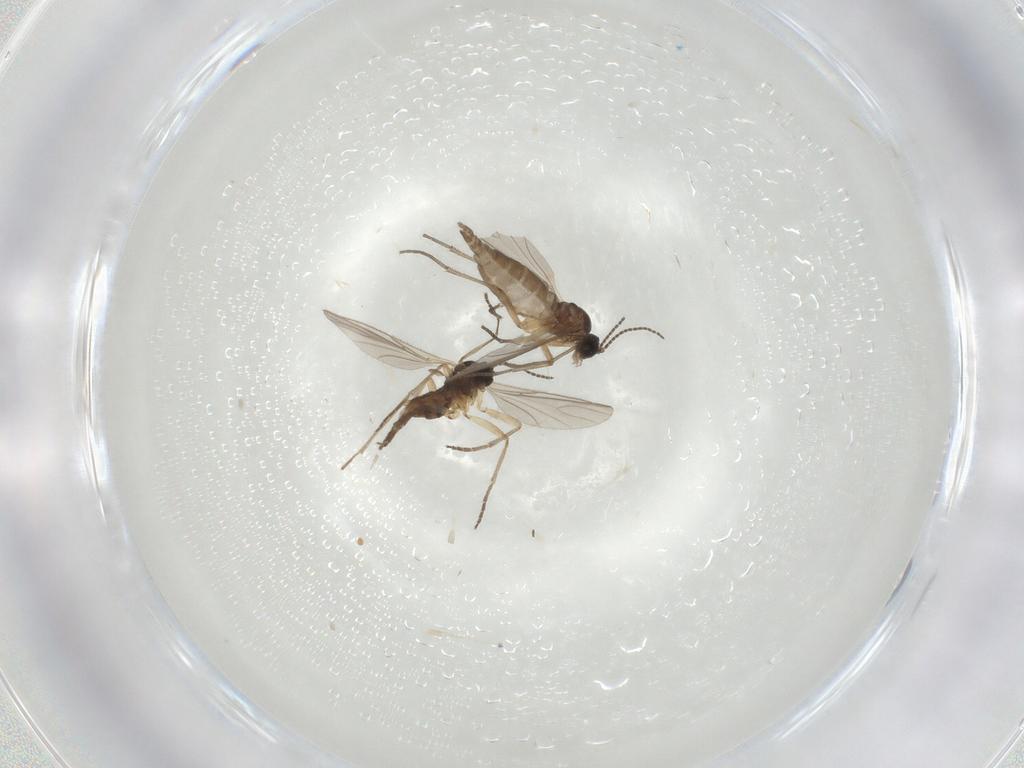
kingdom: Animalia
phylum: Arthropoda
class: Insecta
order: Diptera
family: Sciaridae
